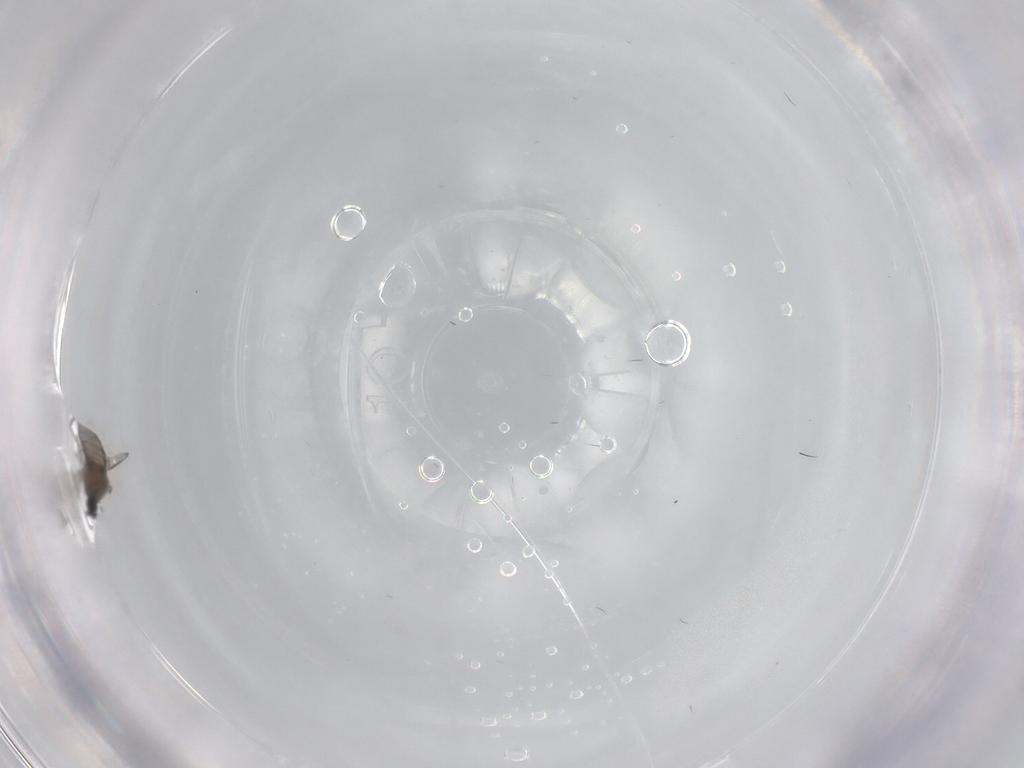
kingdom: Animalia
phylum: Arthropoda
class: Insecta
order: Diptera
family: Cecidomyiidae
